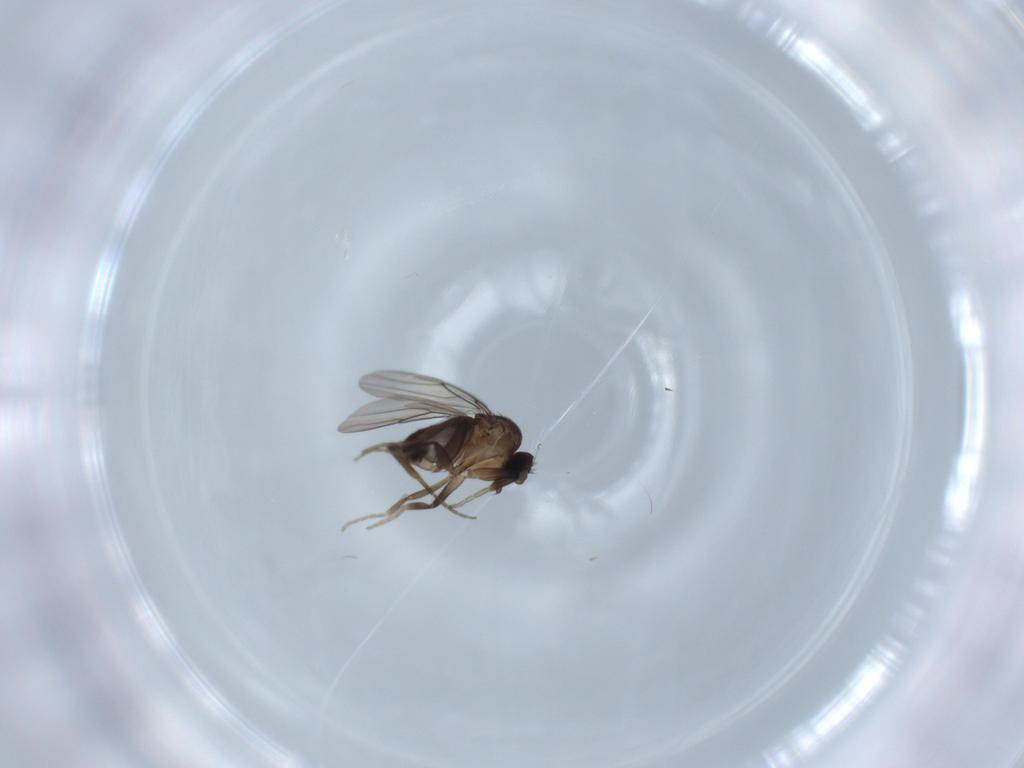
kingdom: Animalia
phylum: Arthropoda
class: Insecta
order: Diptera
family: Phoridae
